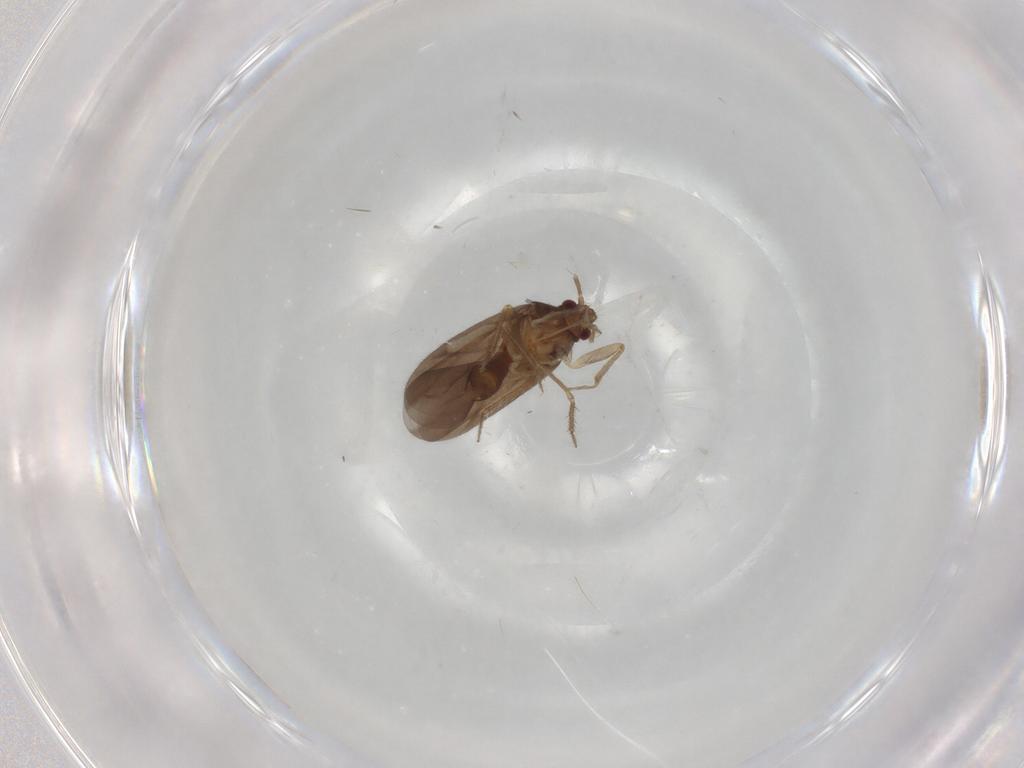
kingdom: Animalia
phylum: Arthropoda
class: Insecta
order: Hemiptera
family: Ceratocombidae
